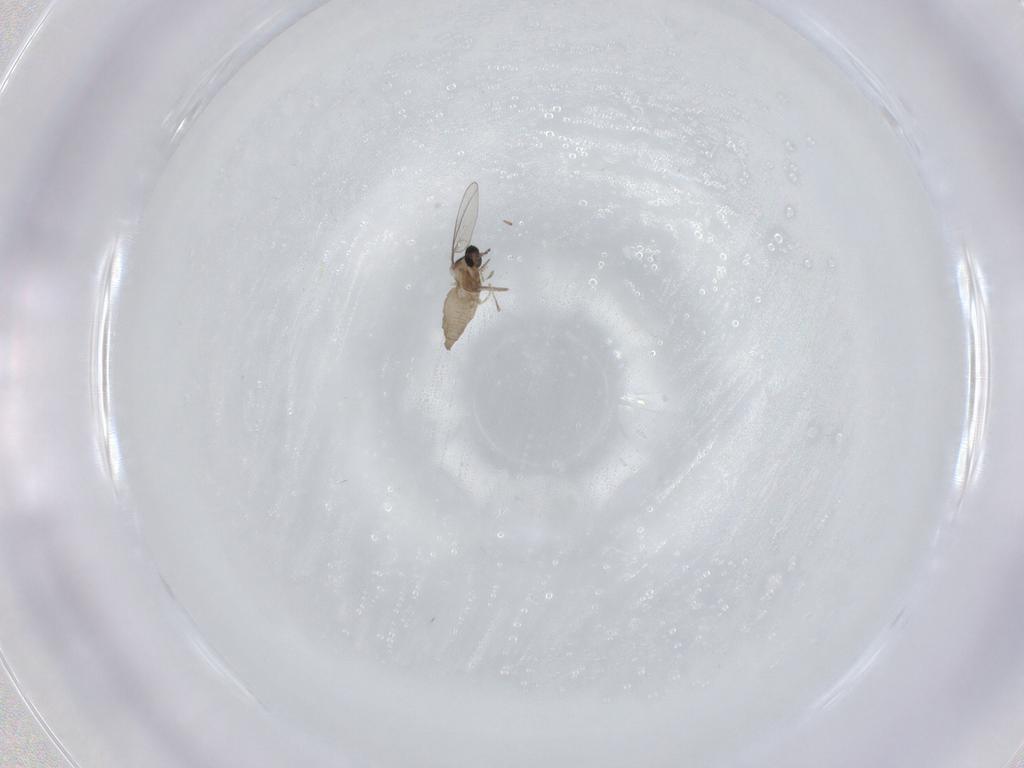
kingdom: Animalia
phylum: Arthropoda
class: Insecta
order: Diptera
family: Cecidomyiidae
